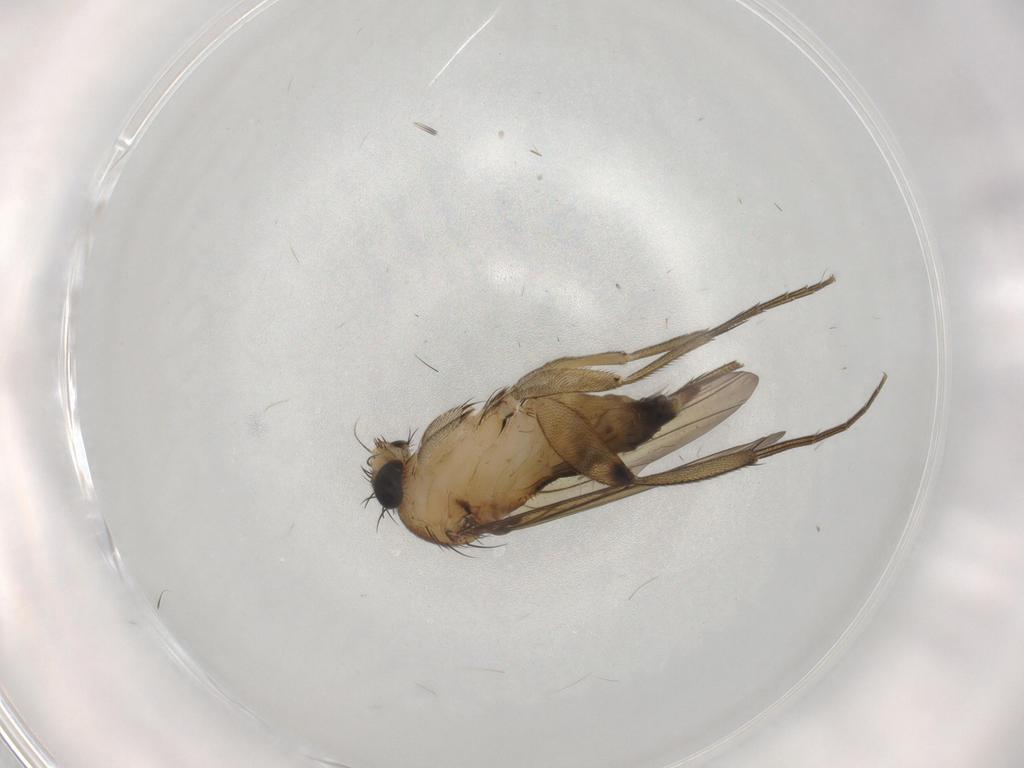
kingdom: Animalia
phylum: Arthropoda
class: Insecta
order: Diptera
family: Phoridae
